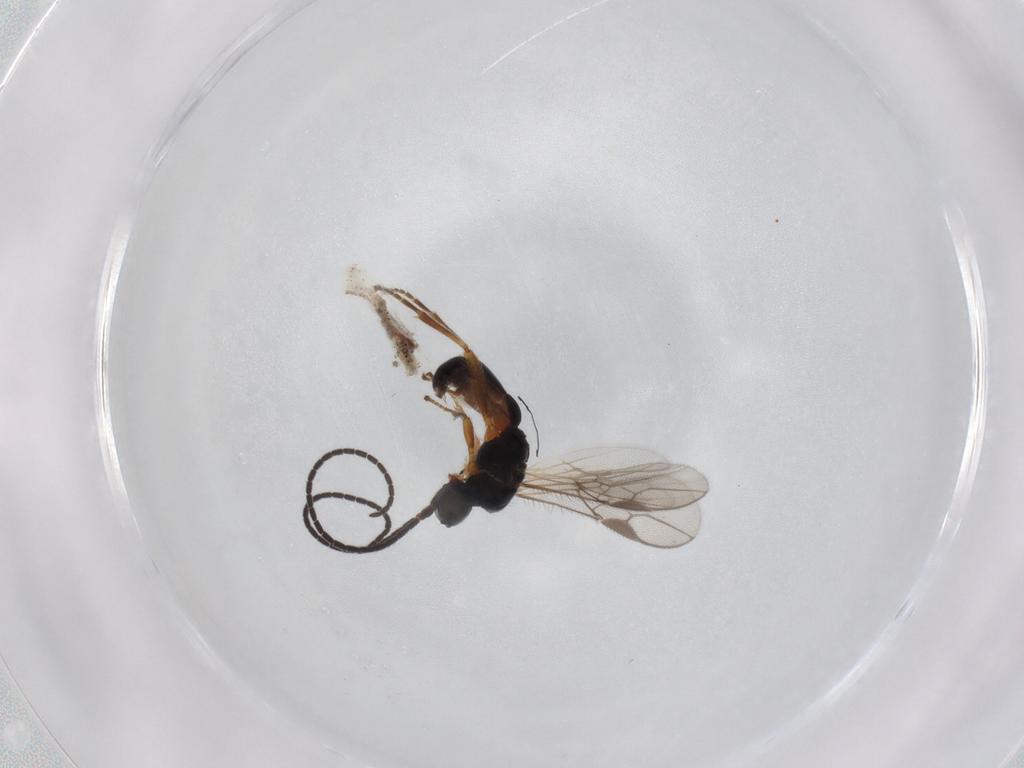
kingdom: Animalia
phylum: Arthropoda
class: Insecta
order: Hymenoptera
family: Braconidae
